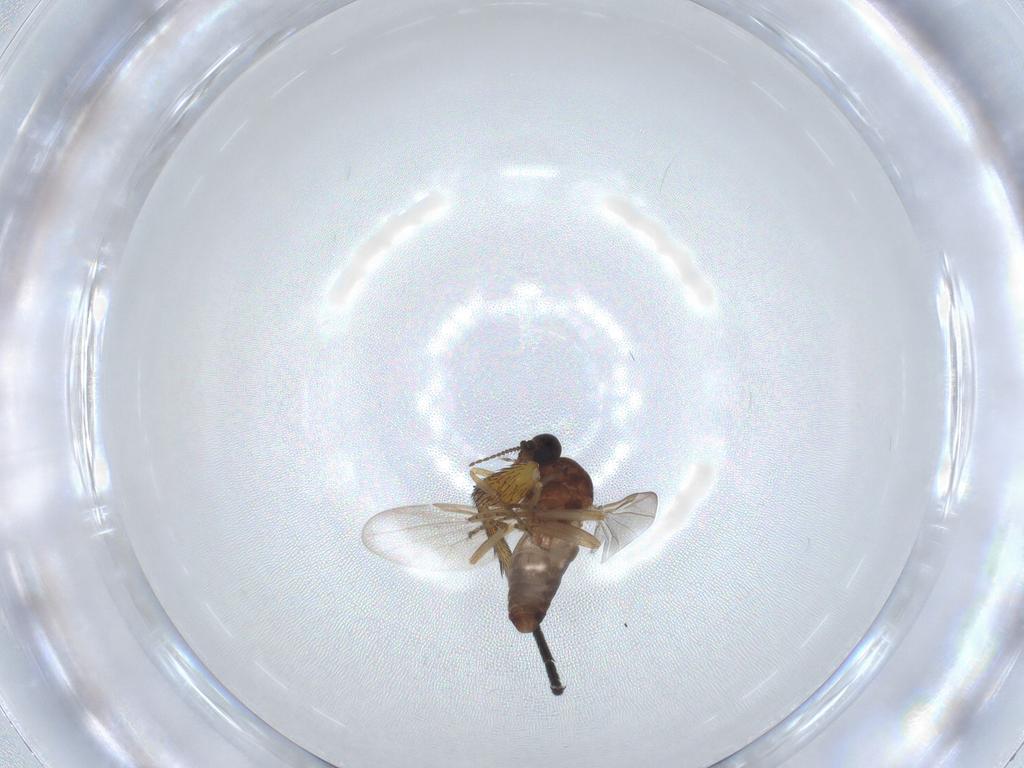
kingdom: Animalia
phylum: Arthropoda
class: Insecta
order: Diptera
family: Ceratopogonidae
